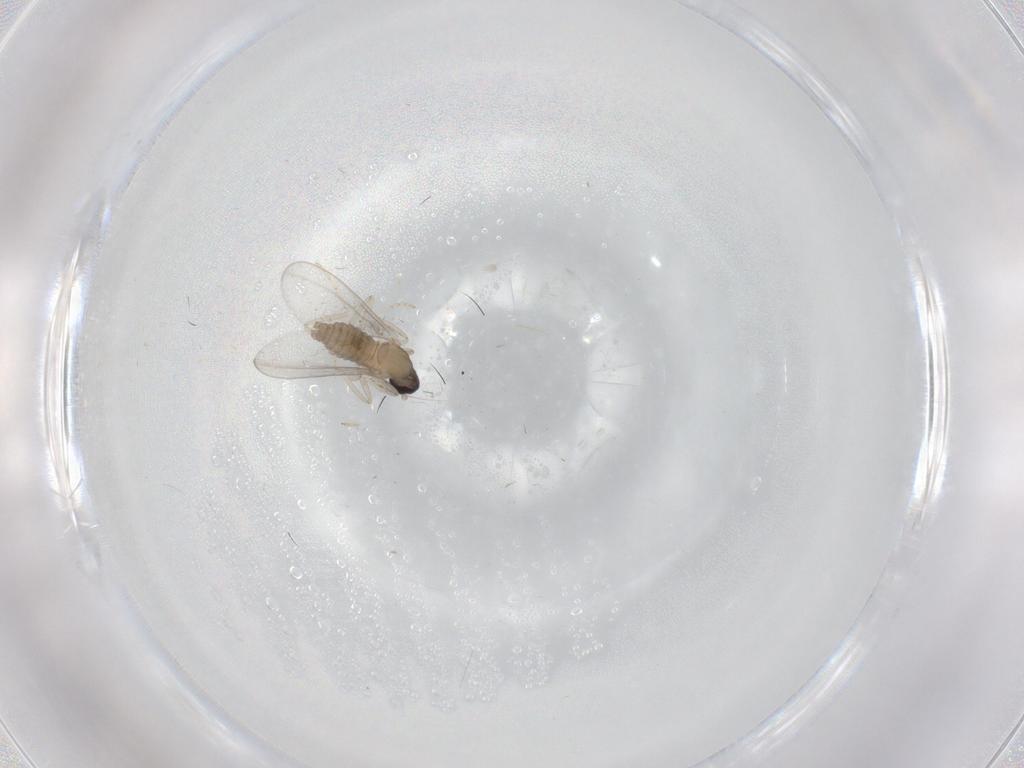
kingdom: Animalia
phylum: Arthropoda
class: Insecta
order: Diptera
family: Cecidomyiidae
